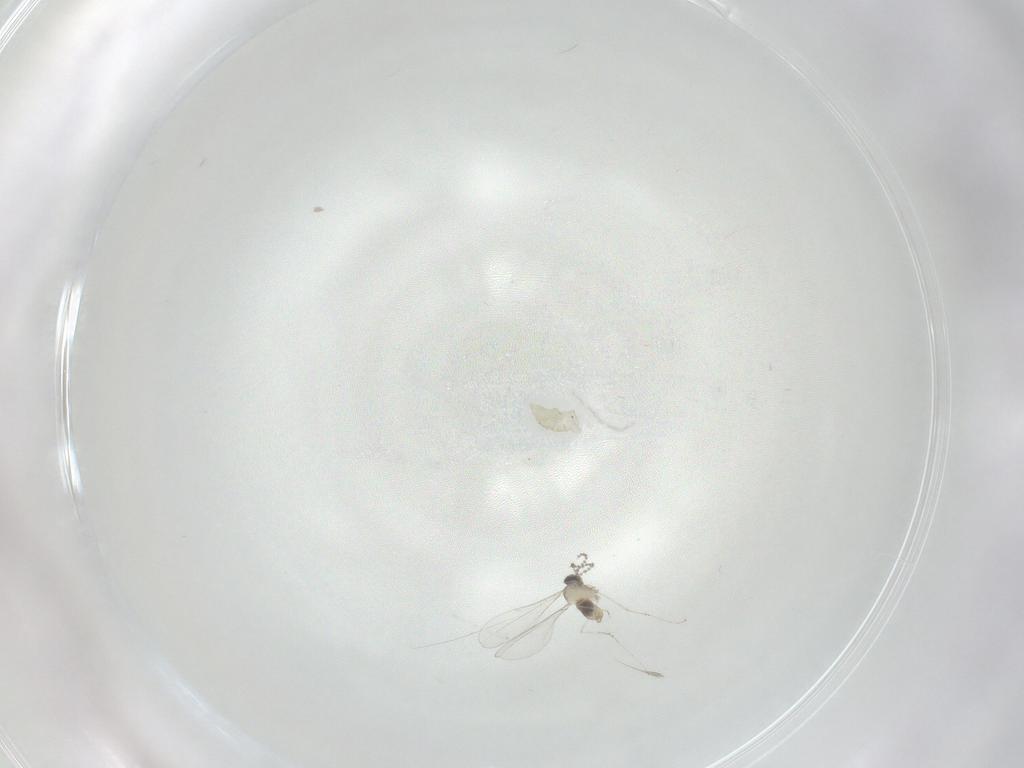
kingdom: Animalia
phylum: Arthropoda
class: Insecta
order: Diptera
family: Cecidomyiidae
